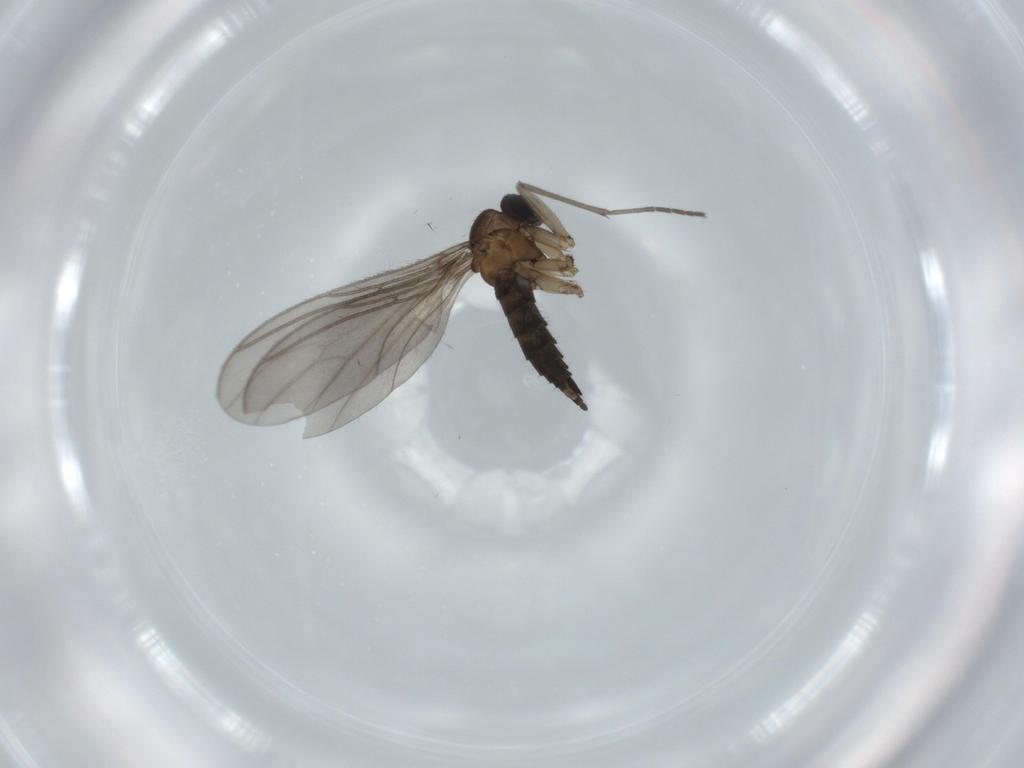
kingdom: Animalia
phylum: Arthropoda
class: Insecta
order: Diptera
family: Sciaridae
